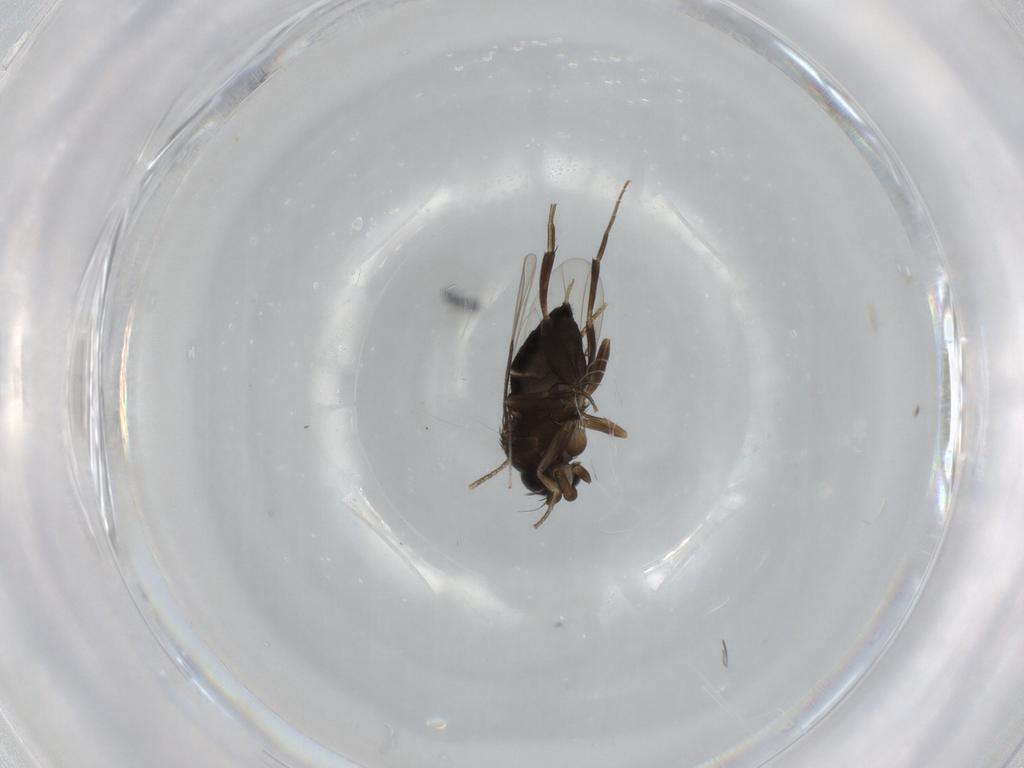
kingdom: Animalia
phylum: Arthropoda
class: Insecta
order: Diptera
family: Phoridae
